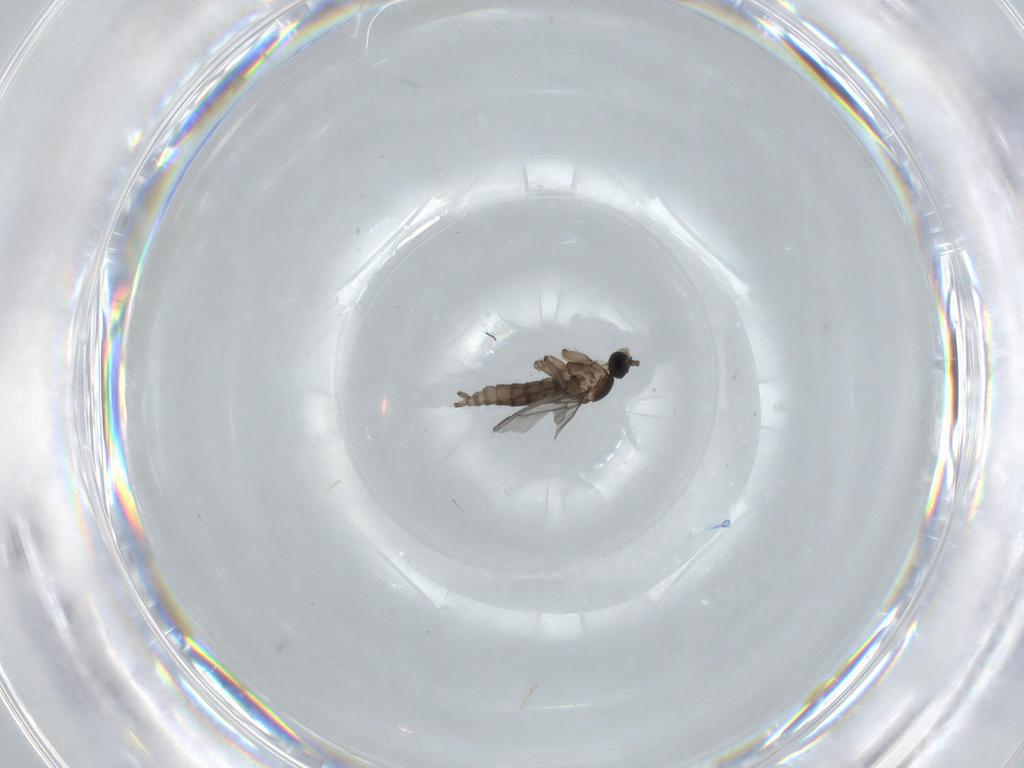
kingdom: Animalia
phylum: Arthropoda
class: Insecta
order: Diptera
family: Sciaridae
